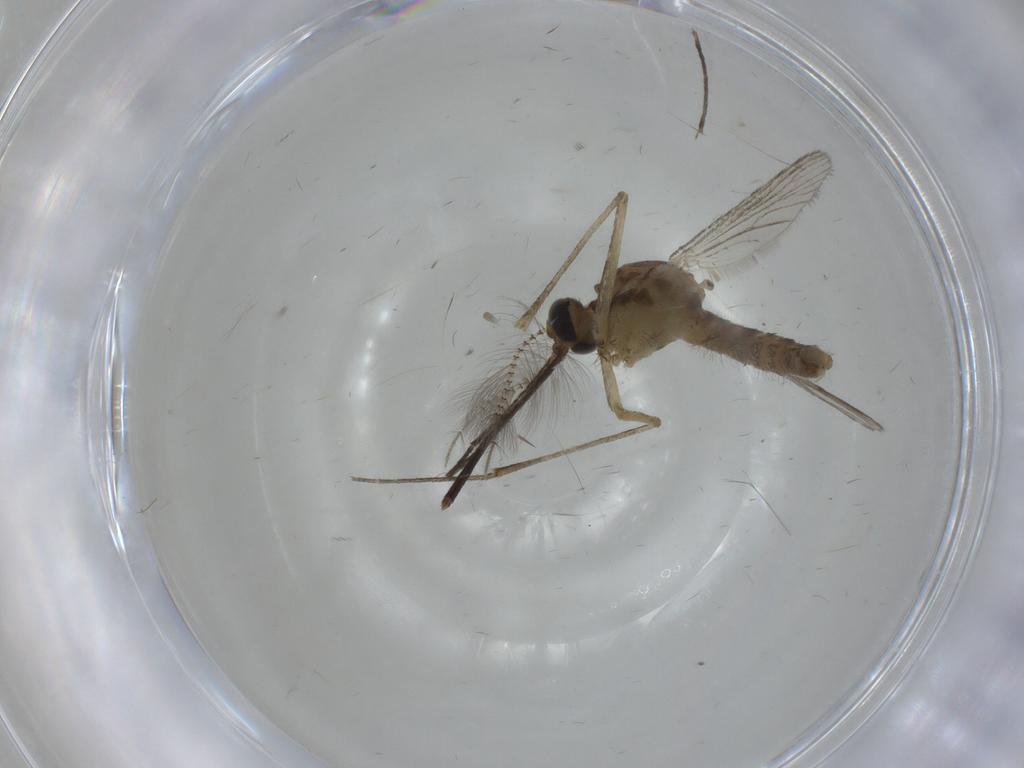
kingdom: Animalia
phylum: Arthropoda
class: Insecta
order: Diptera
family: Culicidae
